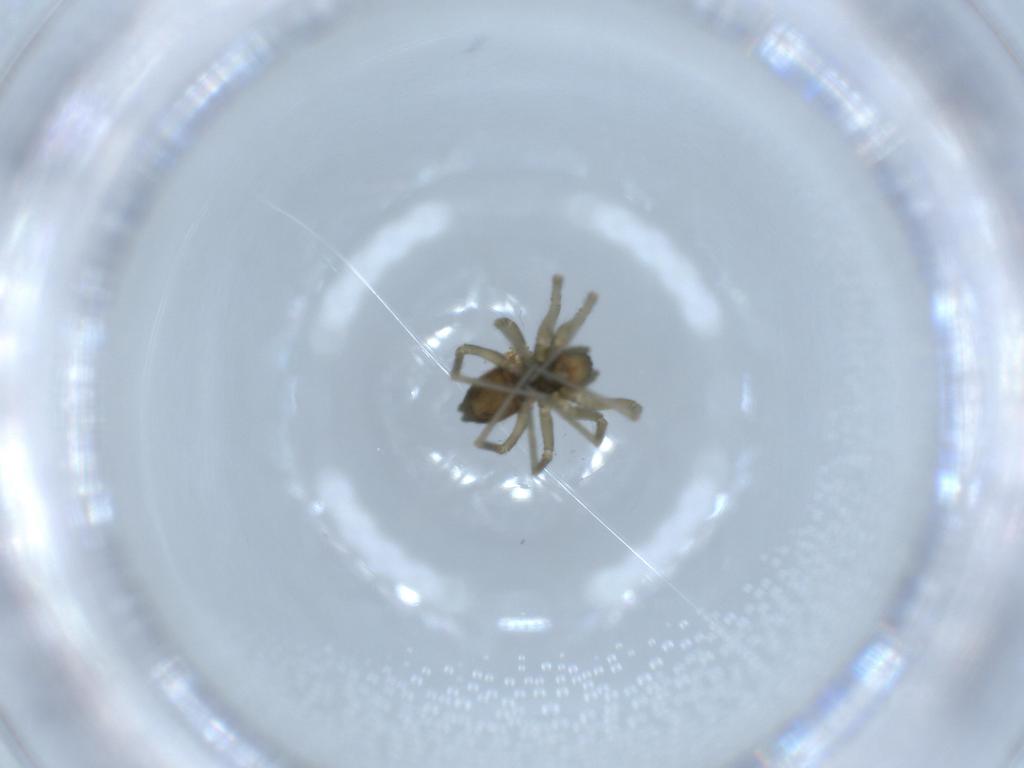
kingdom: Animalia
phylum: Arthropoda
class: Arachnida
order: Araneae
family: Linyphiidae
